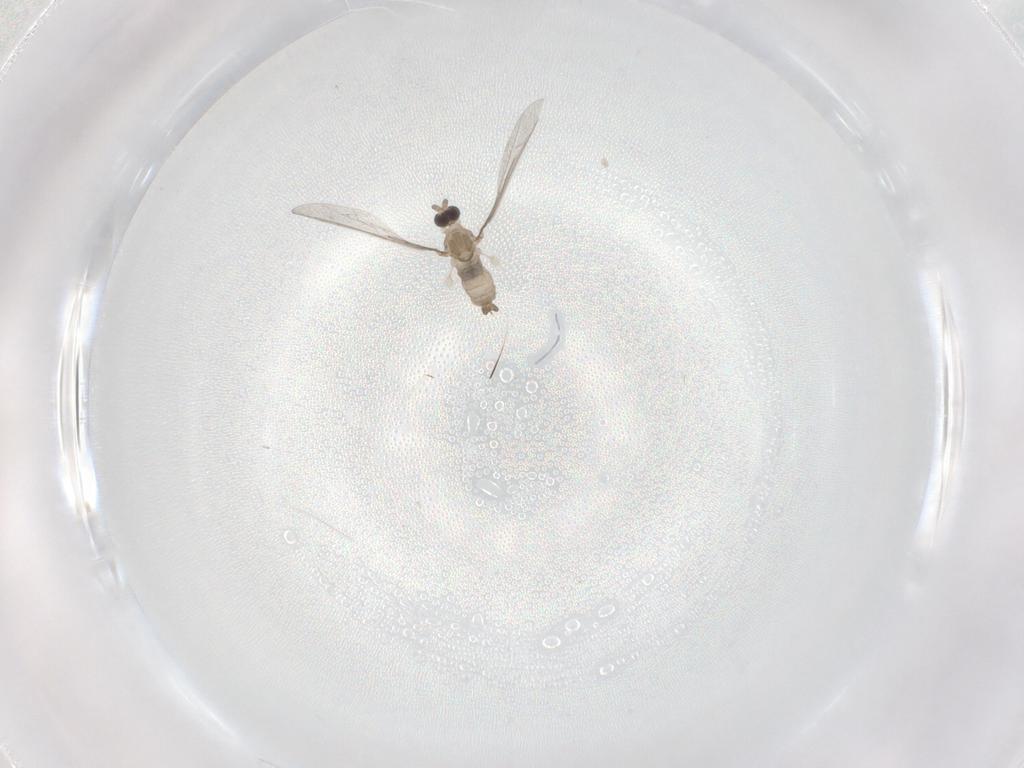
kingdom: Animalia
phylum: Arthropoda
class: Insecta
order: Diptera
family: Cecidomyiidae
